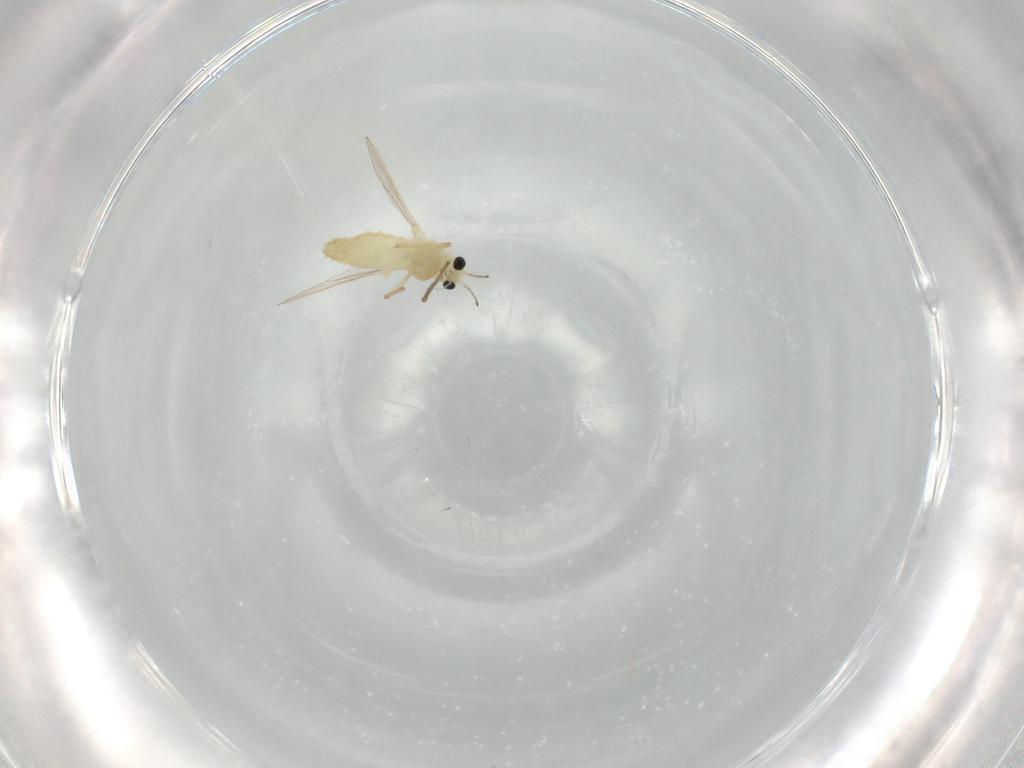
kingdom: Animalia
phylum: Arthropoda
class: Insecta
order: Diptera
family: Chironomidae
